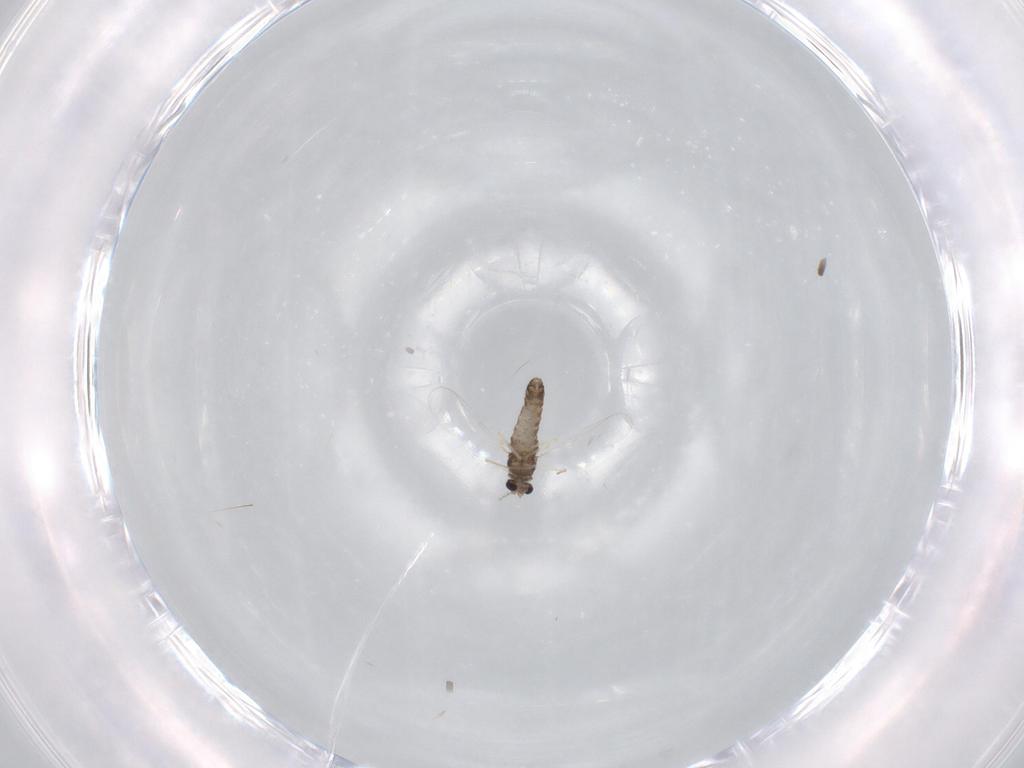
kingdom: Animalia
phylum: Arthropoda
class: Insecta
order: Diptera
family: Chironomidae
